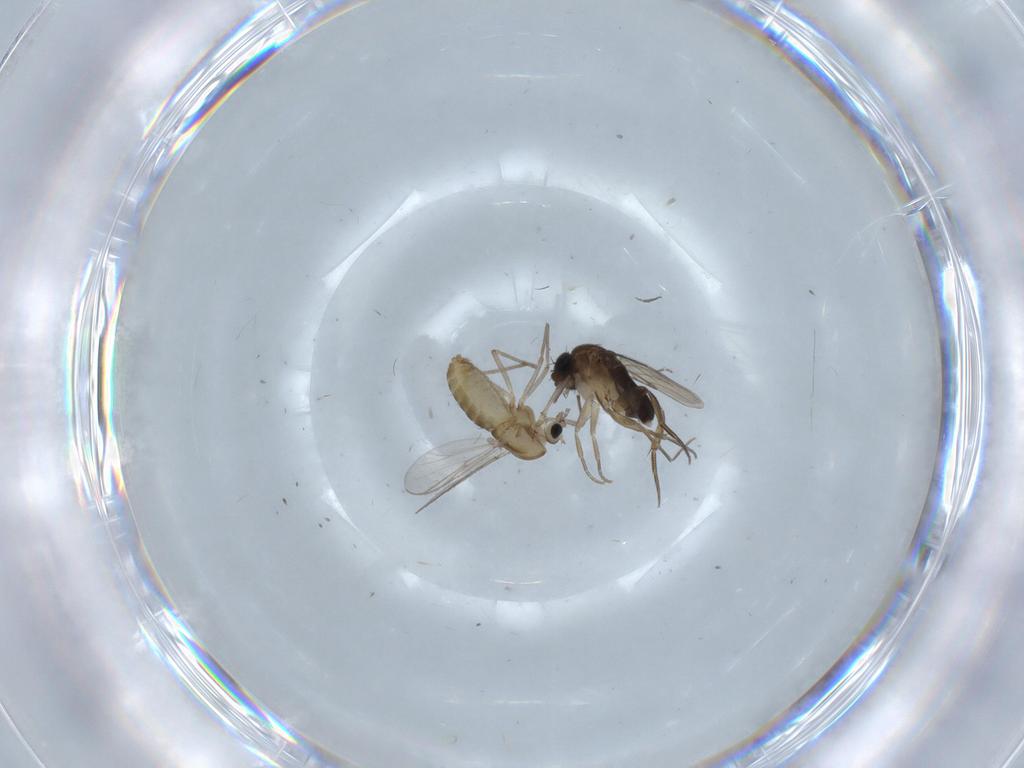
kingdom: Animalia
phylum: Arthropoda
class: Insecta
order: Diptera
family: Chironomidae
